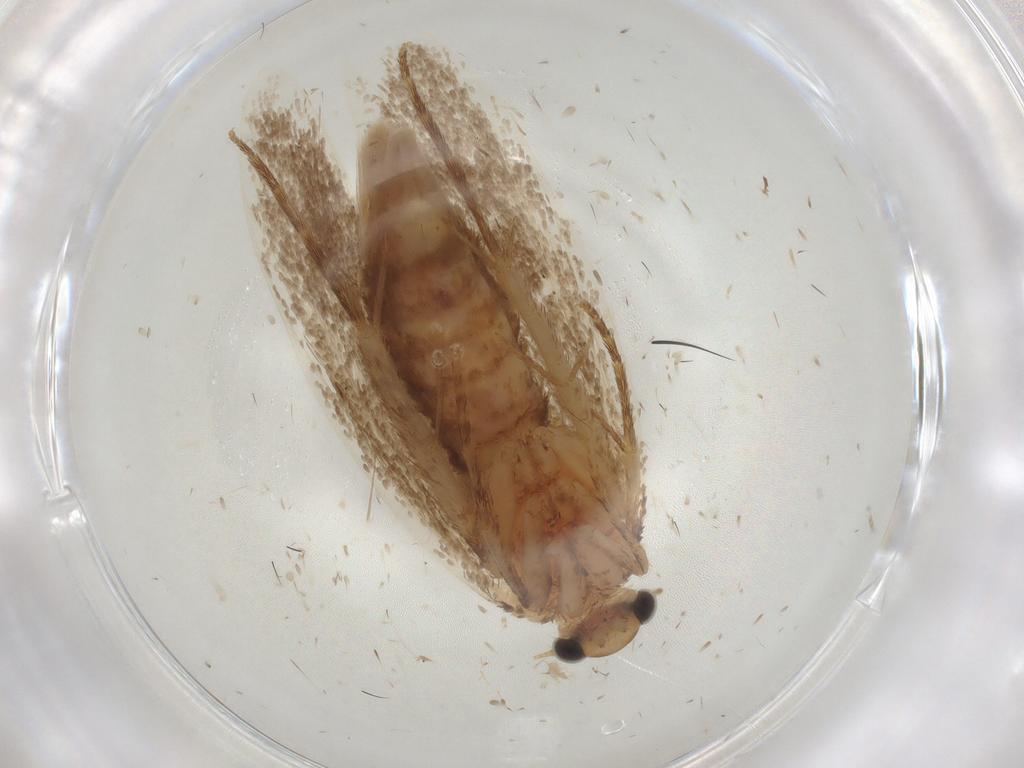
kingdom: Animalia
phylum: Arthropoda
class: Insecta
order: Lepidoptera
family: Tineidae
